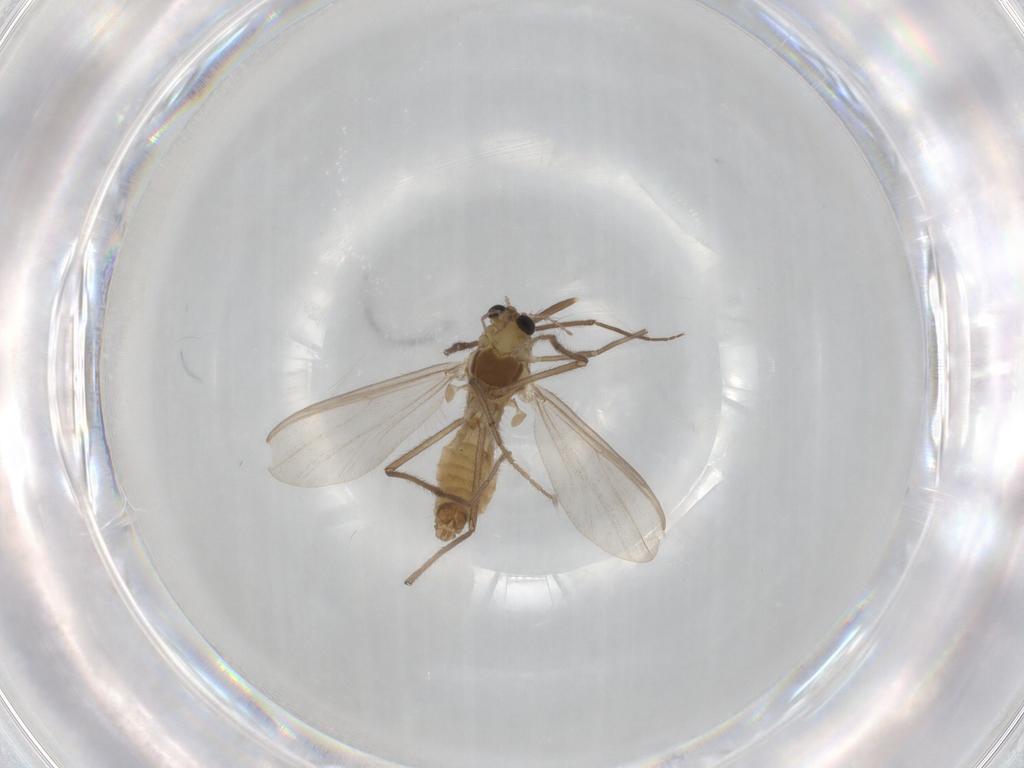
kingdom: Animalia
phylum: Arthropoda
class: Insecta
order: Diptera
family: Chironomidae
